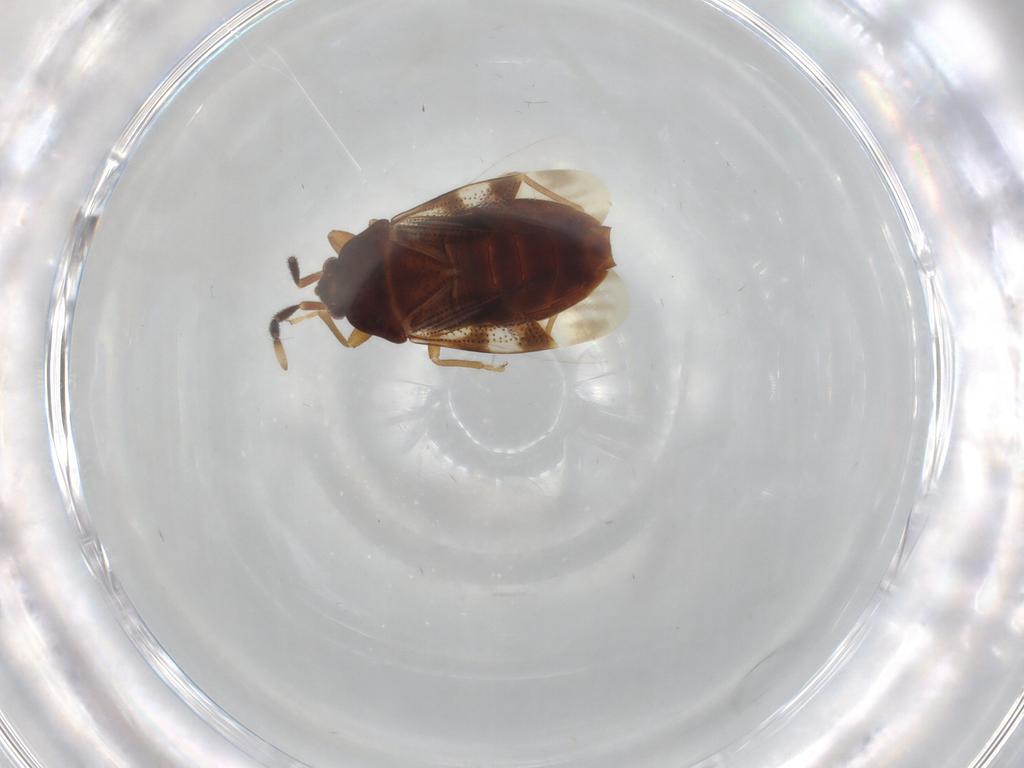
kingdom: Animalia
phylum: Arthropoda
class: Insecta
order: Hemiptera
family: Rhyparochromidae
